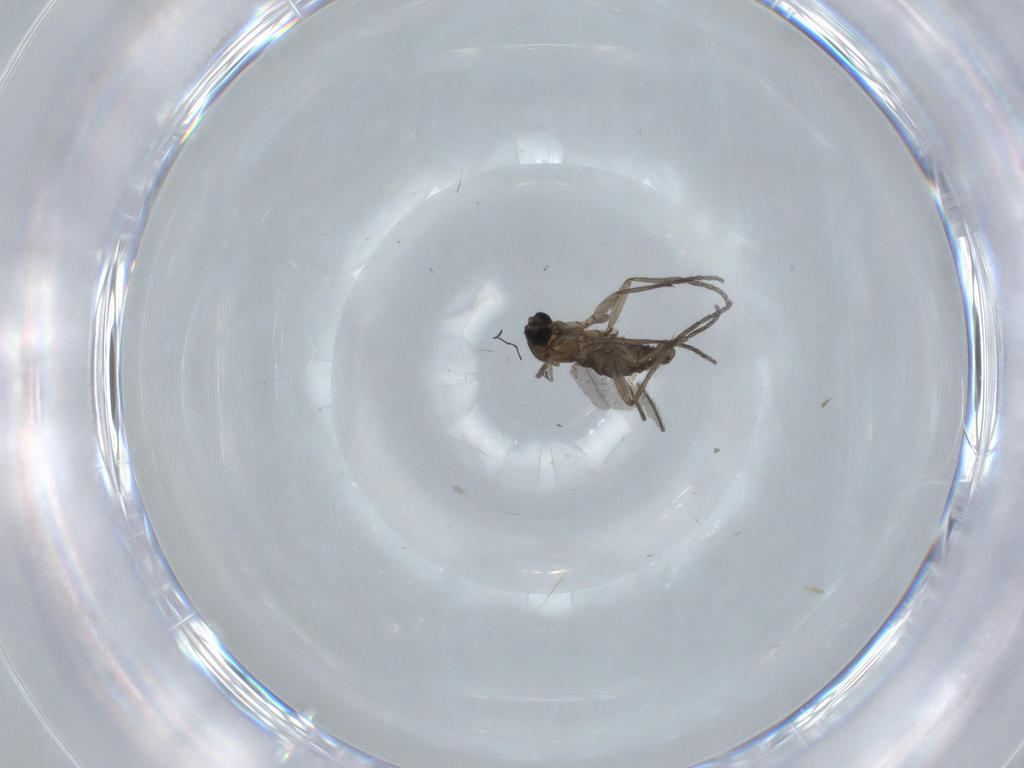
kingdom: Animalia
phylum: Arthropoda
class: Insecta
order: Diptera
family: Sciaridae
